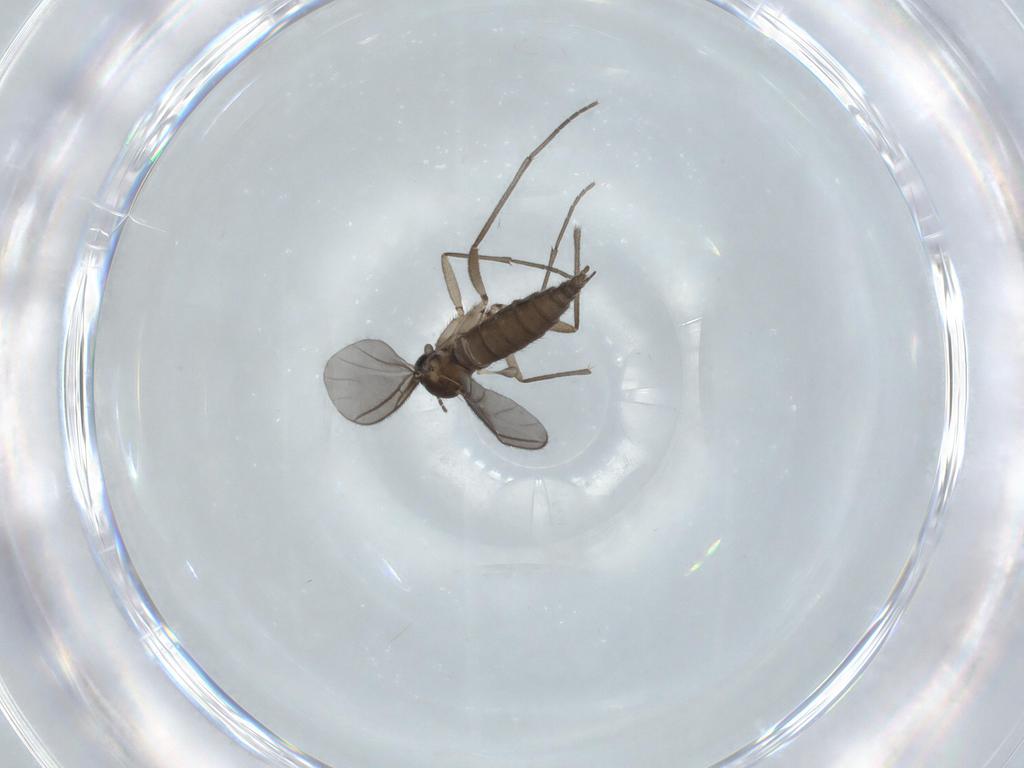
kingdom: Animalia
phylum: Arthropoda
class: Insecta
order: Diptera
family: Sciaridae
